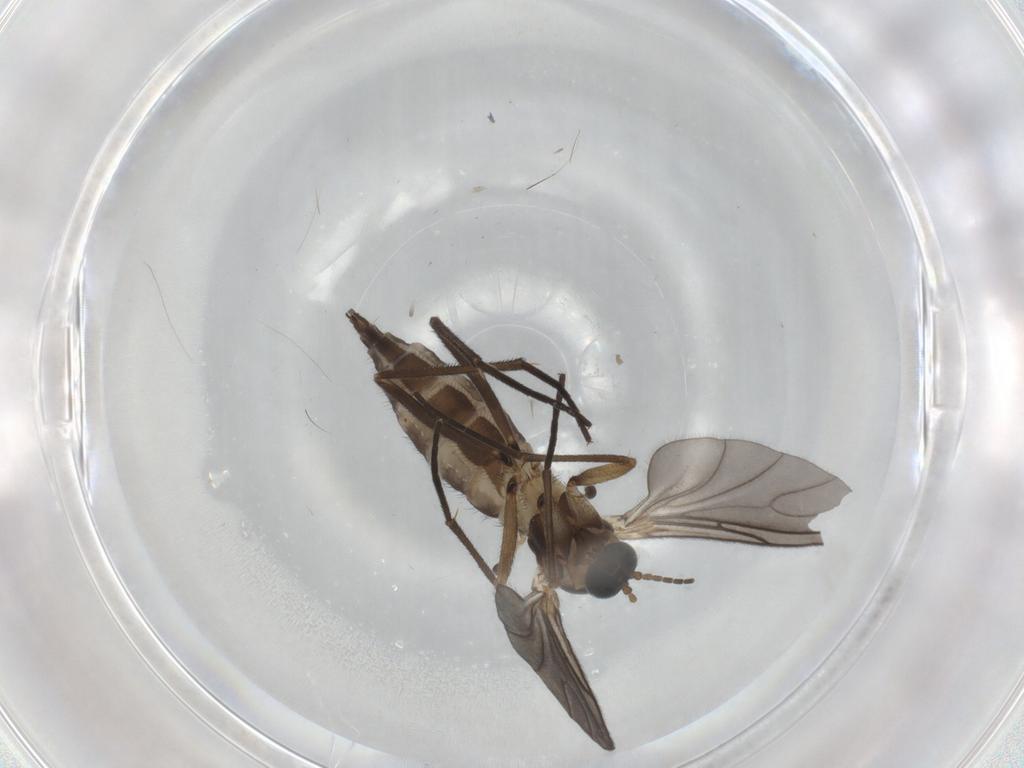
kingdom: Animalia
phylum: Arthropoda
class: Insecta
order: Diptera
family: Sciaridae
